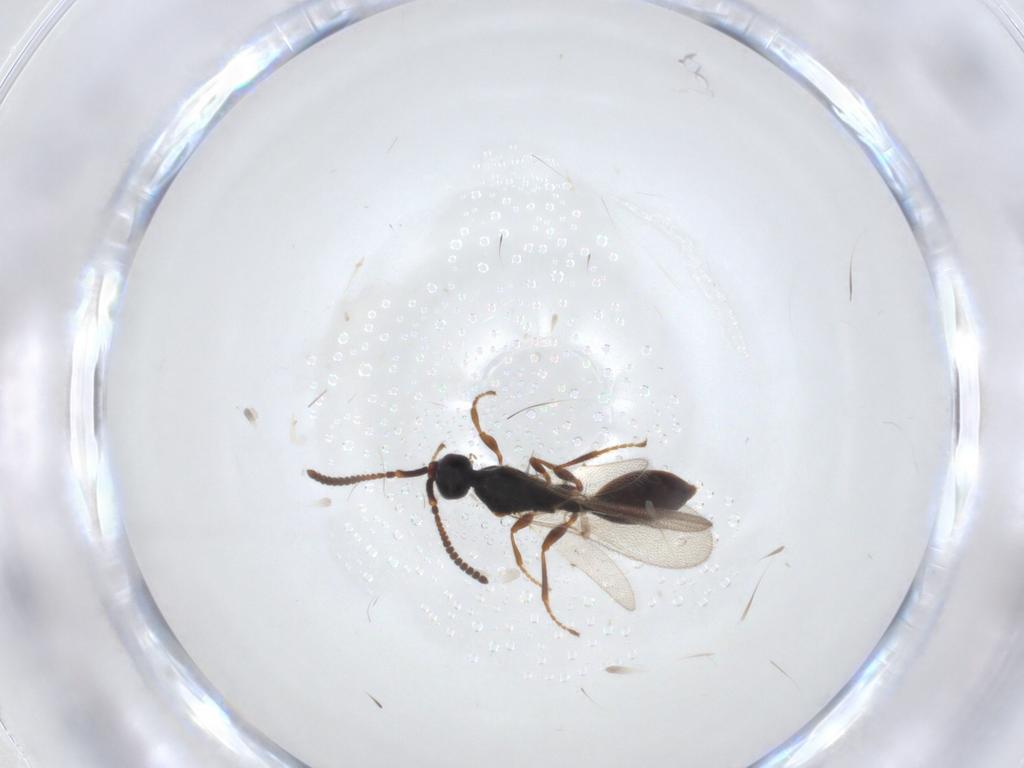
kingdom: Animalia
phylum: Arthropoda
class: Insecta
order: Hymenoptera
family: Diapriidae
